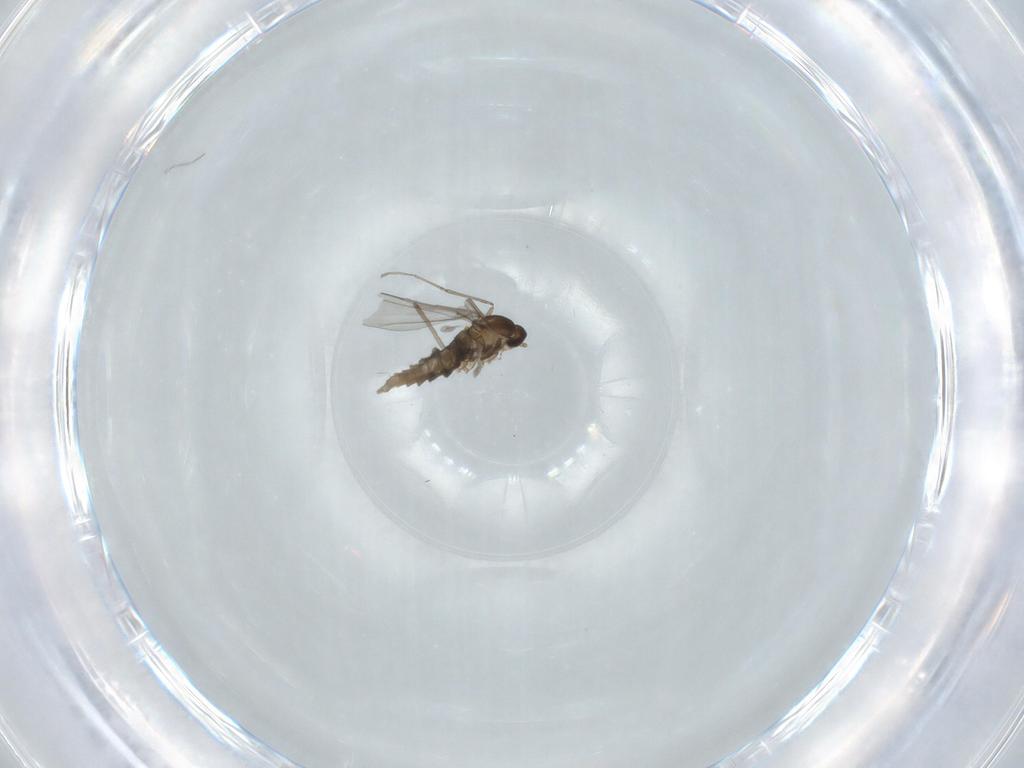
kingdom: Animalia
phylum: Arthropoda
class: Insecta
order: Diptera
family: Cecidomyiidae
